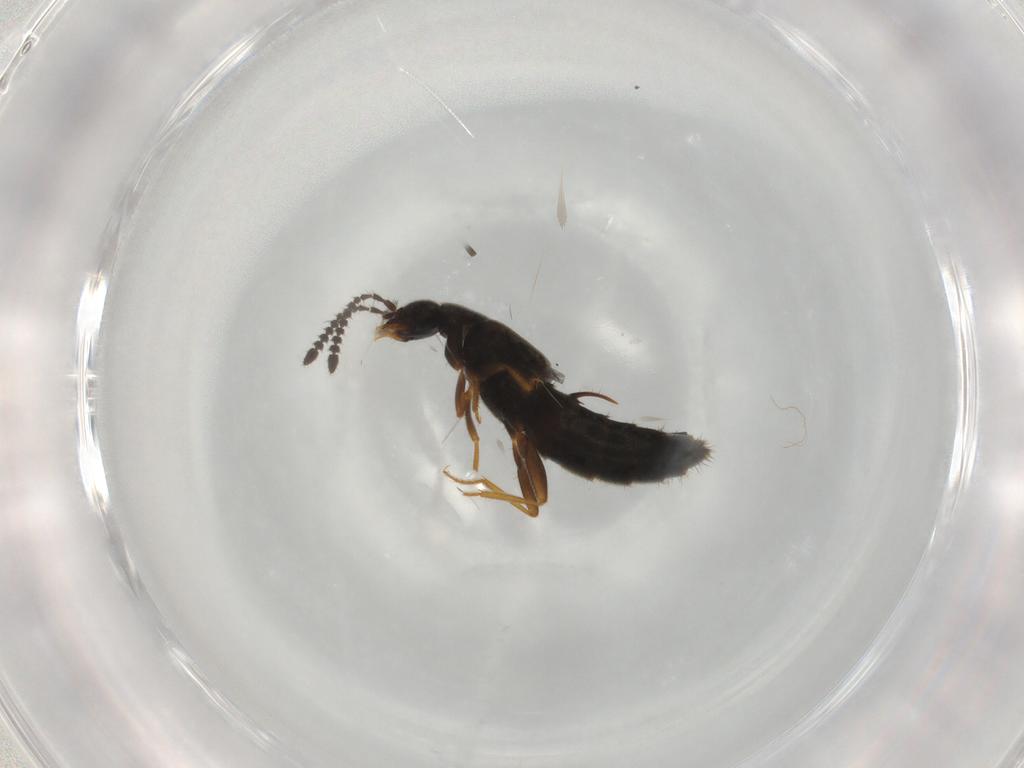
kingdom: Animalia
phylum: Arthropoda
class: Insecta
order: Coleoptera
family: Staphylinidae
